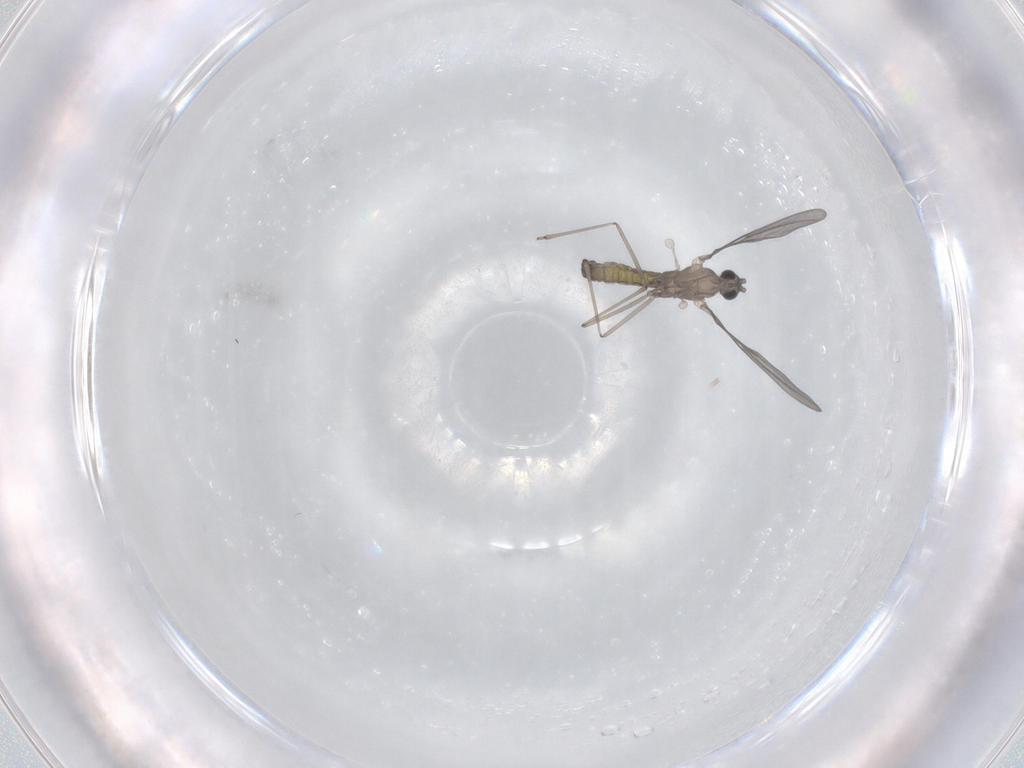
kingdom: Animalia
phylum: Arthropoda
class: Insecta
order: Diptera
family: Cecidomyiidae
